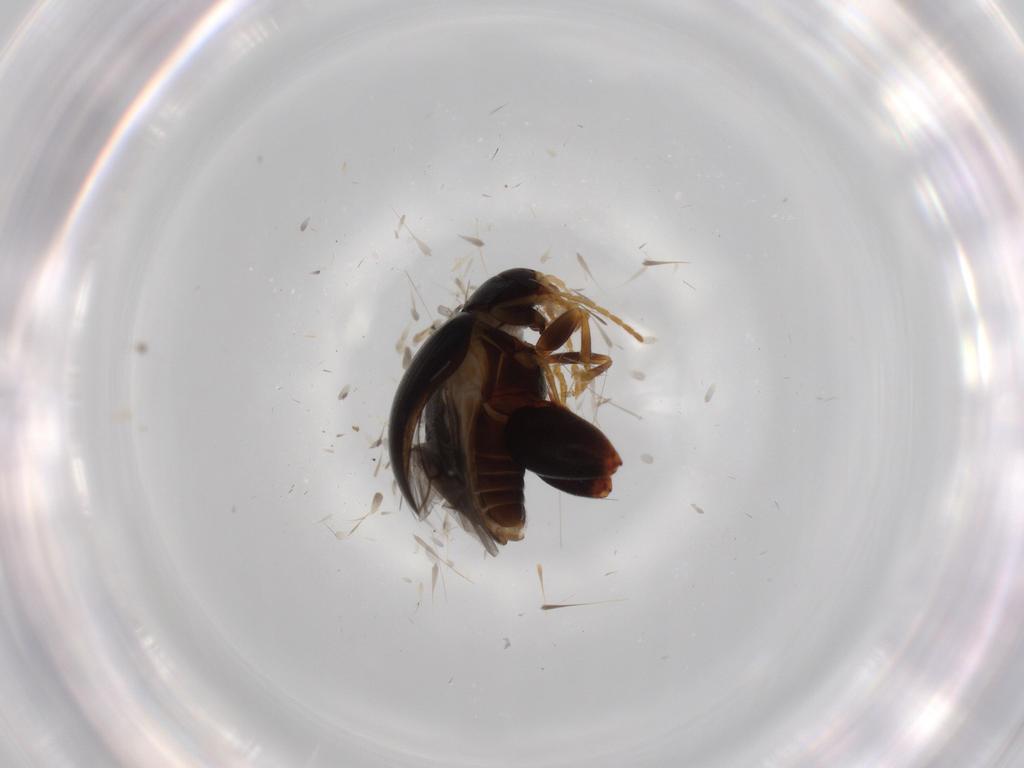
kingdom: Animalia
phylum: Arthropoda
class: Insecta
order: Coleoptera
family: Chrysomelidae
